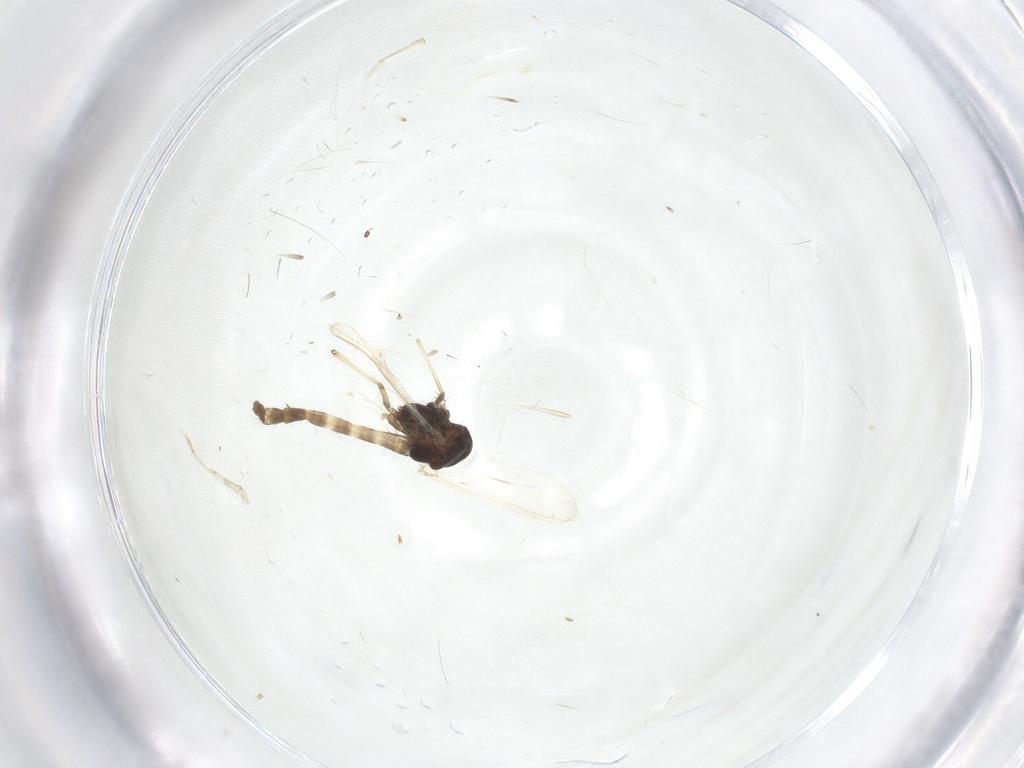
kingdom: Animalia
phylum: Arthropoda
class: Insecta
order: Diptera
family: Chironomidae
